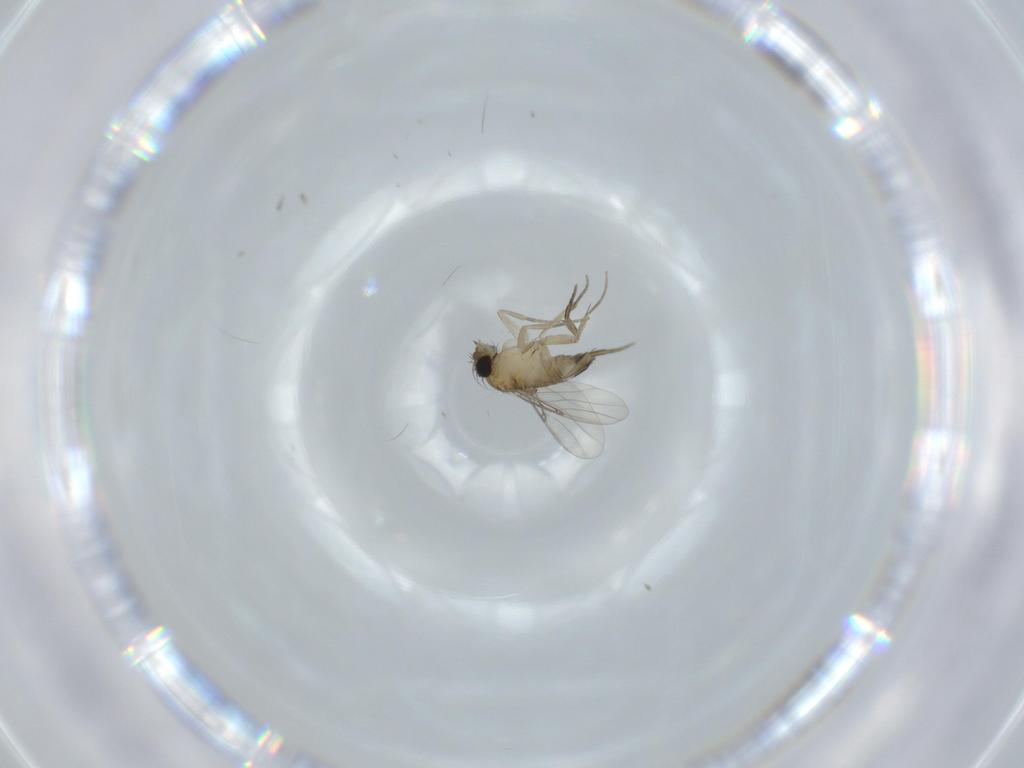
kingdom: Animalia
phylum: Arthropoda
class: Insecta
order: Diptera
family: Phoridae
